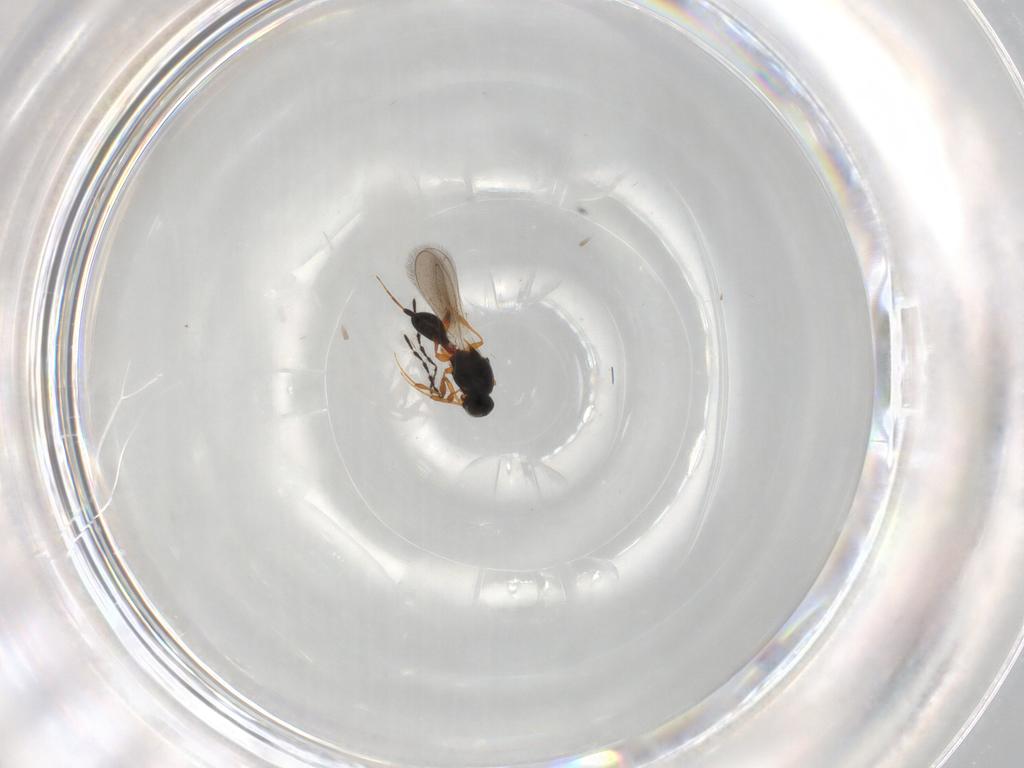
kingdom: Animalia
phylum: Arthropoda
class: Insecta
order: Hymenoptera
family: Platygastridae
